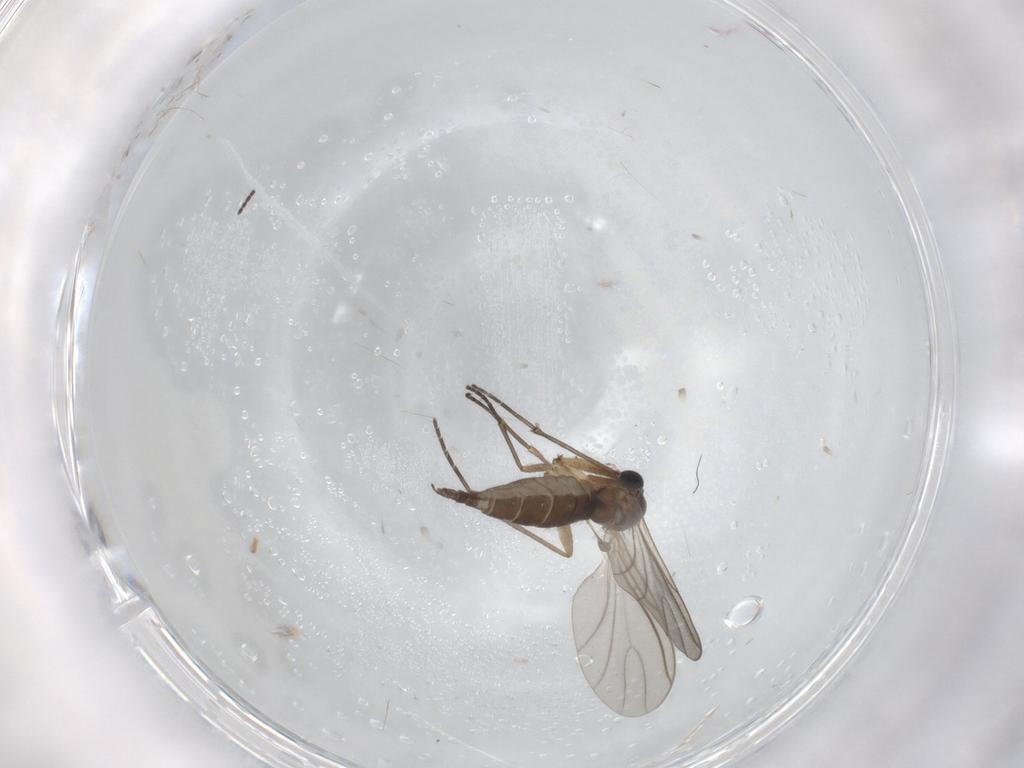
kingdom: Animalia
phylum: Arthropoda
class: Insecta
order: Diptera
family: Sciaridae
